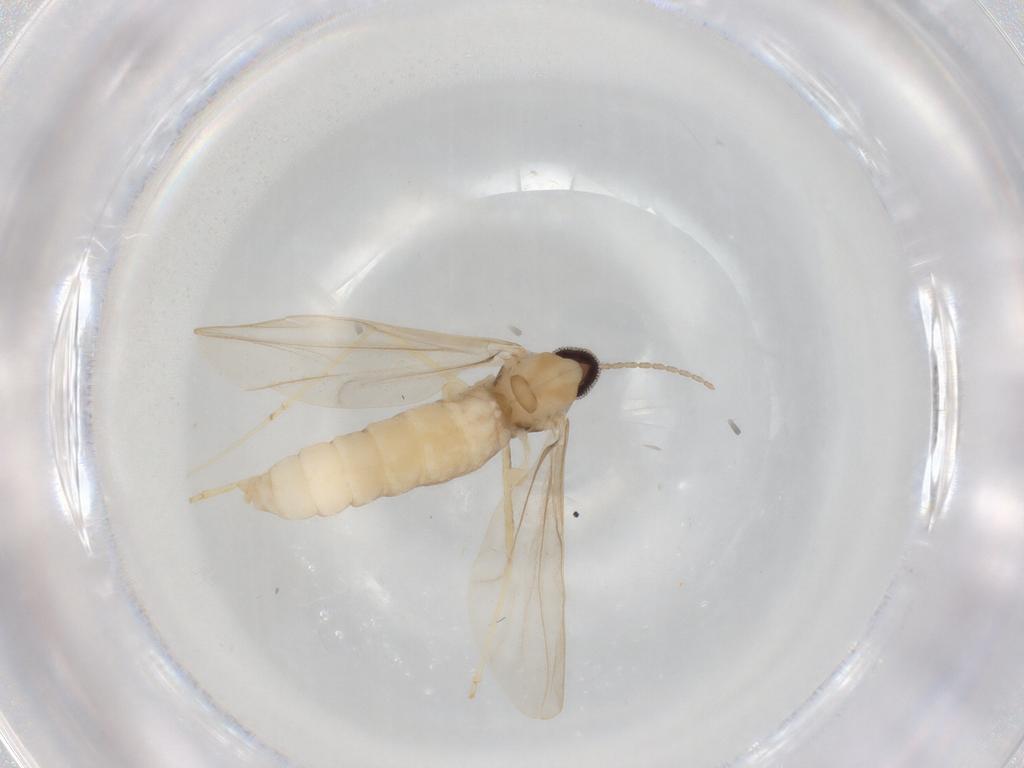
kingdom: Animalia
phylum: Arthropoda
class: Insecta
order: Diptera
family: Cecidomyiidae
